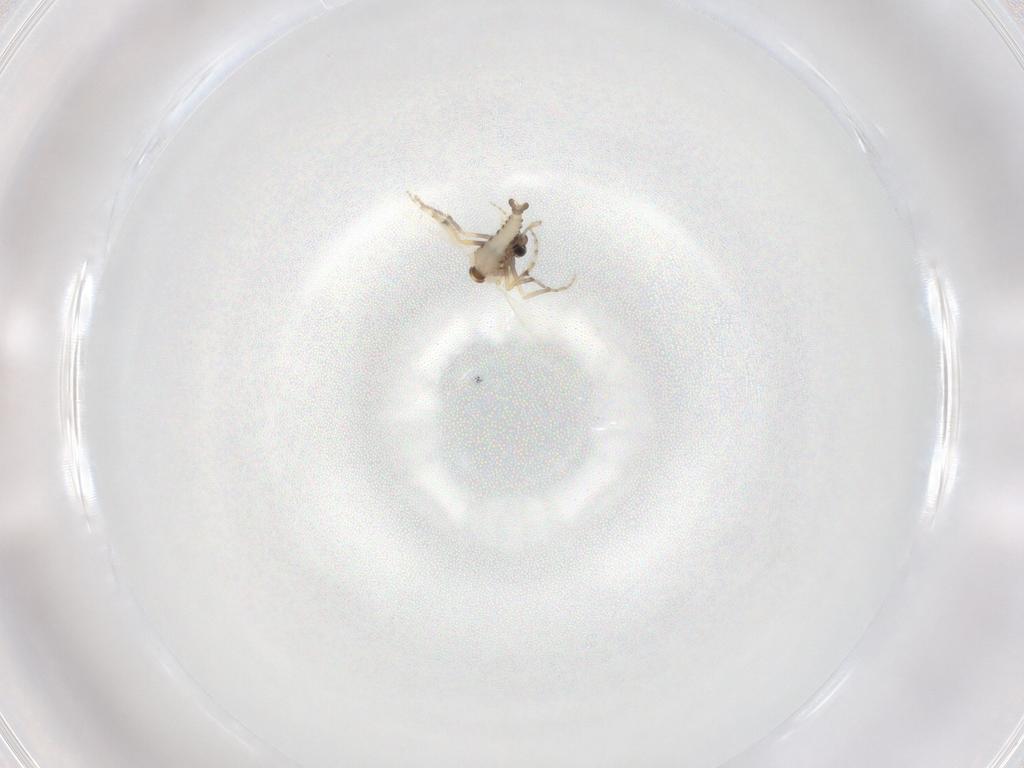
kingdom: Animalia
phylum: Arthropoda
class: Insecta
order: Diptera
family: Ceratopogonidae
